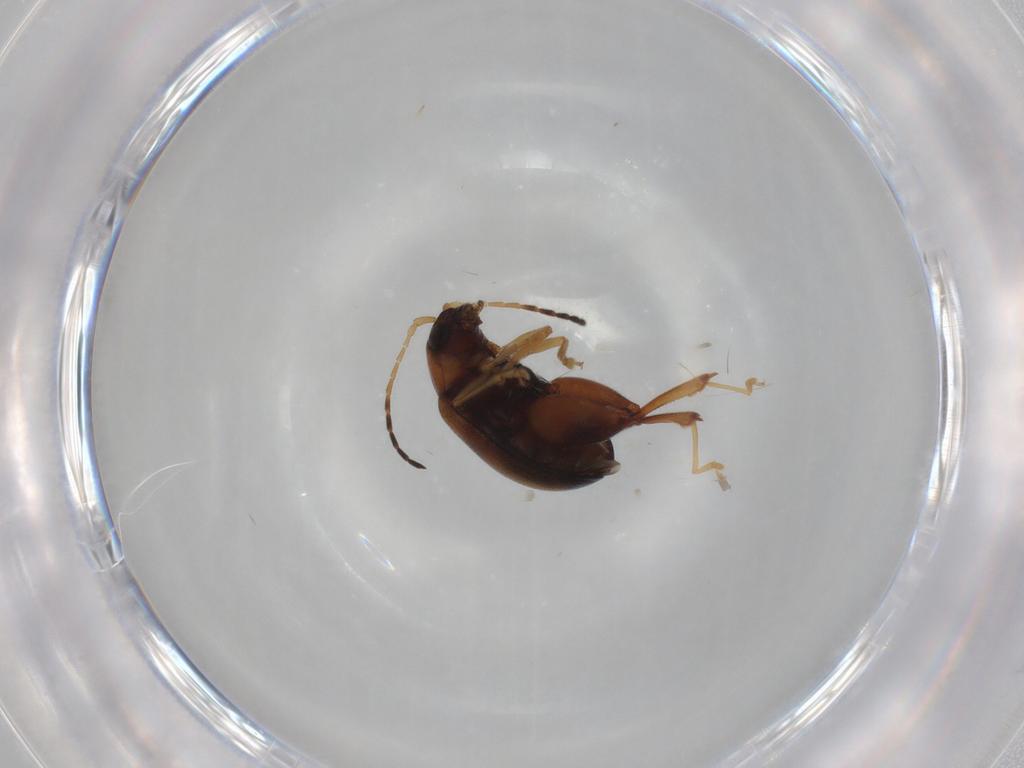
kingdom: Animalia
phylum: Arthropoda
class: Insecta
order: Coleoptera
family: Chrysomelidae
